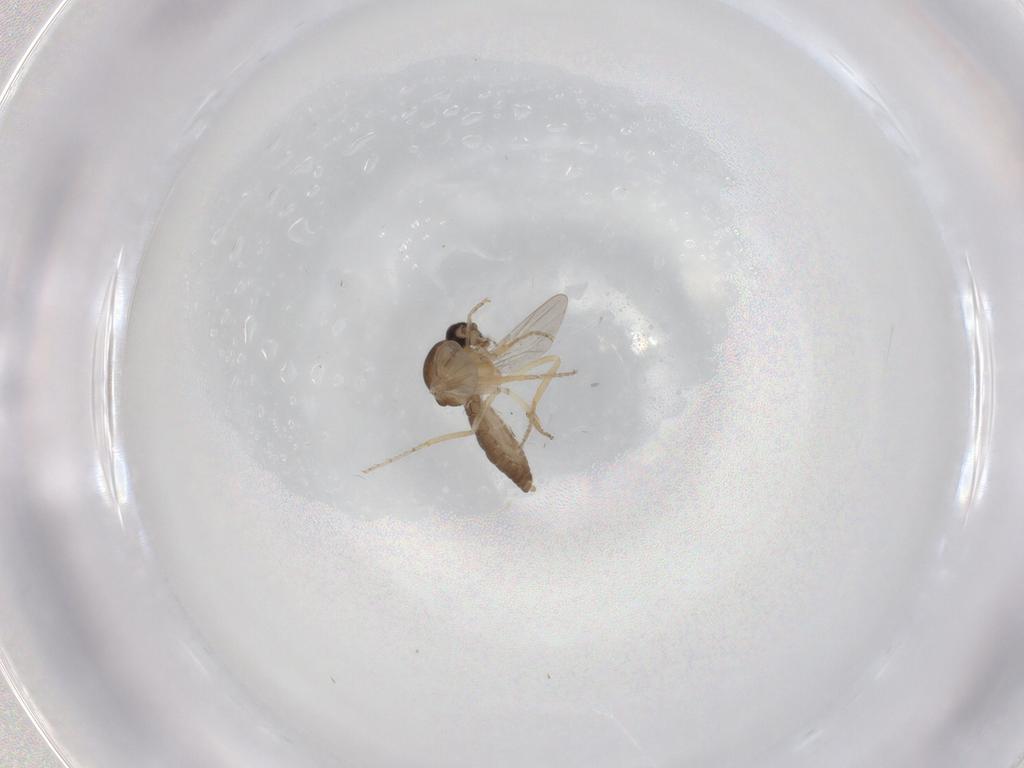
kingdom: Animalia
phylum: Arthropoda
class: Insecta
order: Diptera
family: Ceratopogonidae
